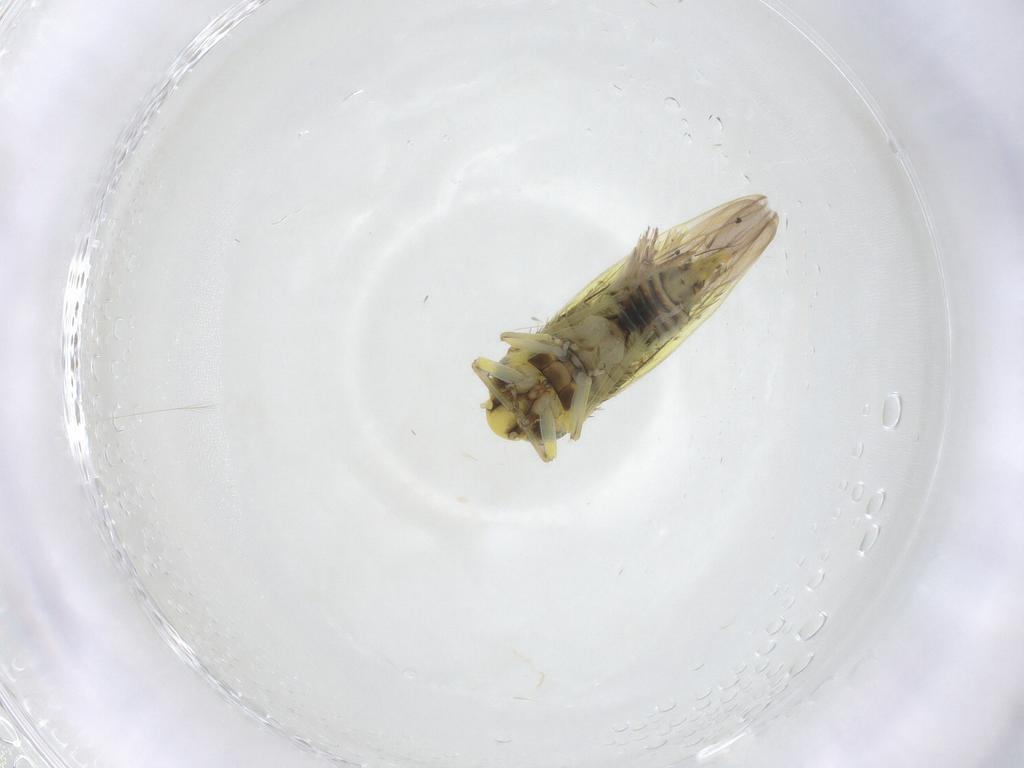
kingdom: Animalia
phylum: Arthropoda
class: Insecta
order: Hemiptera
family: Cicadellidae
